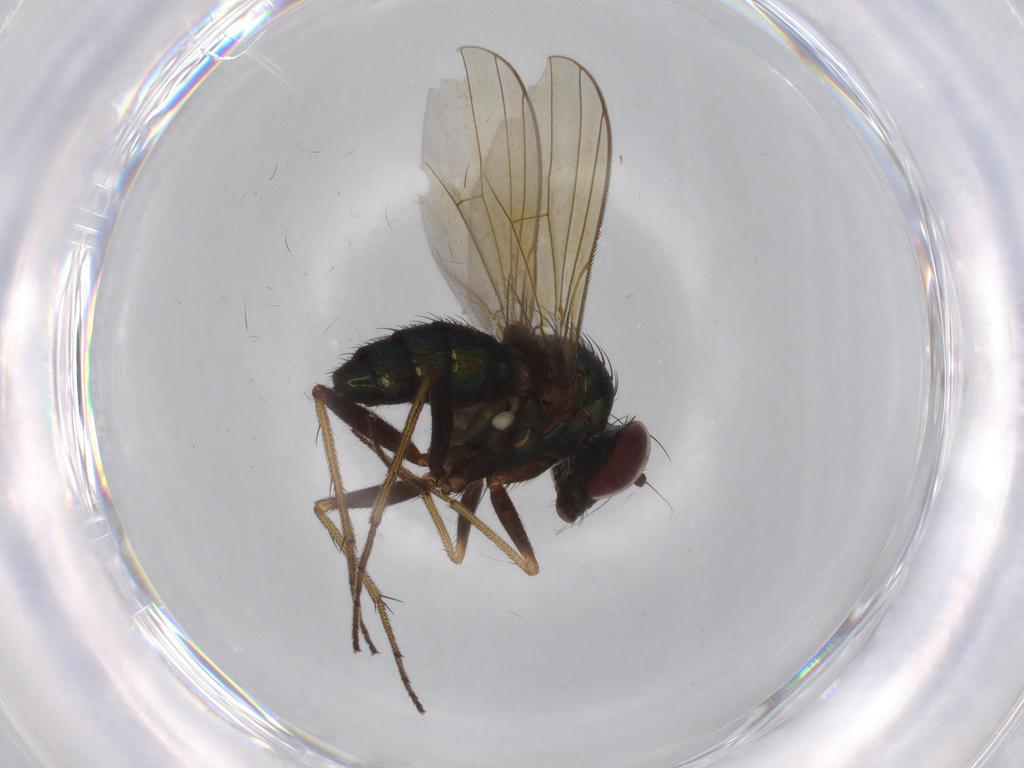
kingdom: Animalia
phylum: Arthropoda
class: Insecta
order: Diptera
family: Dolichopodidae
